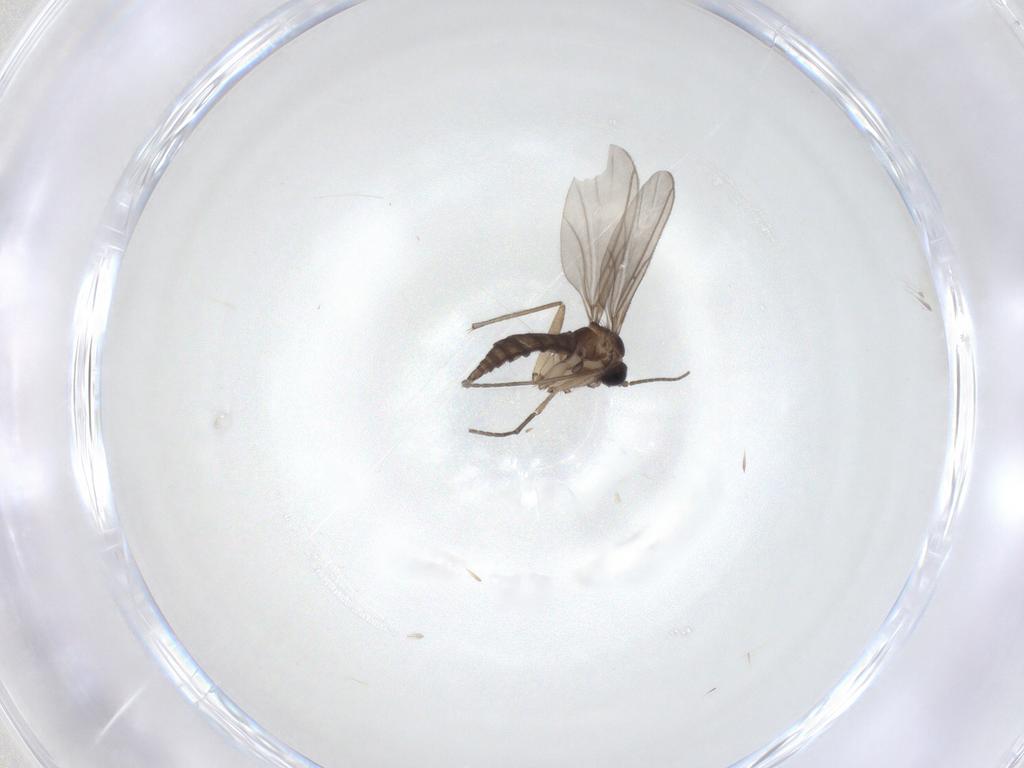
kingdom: Animalia
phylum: Arthropoda
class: Insecta
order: Diptera
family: Sciaridae
